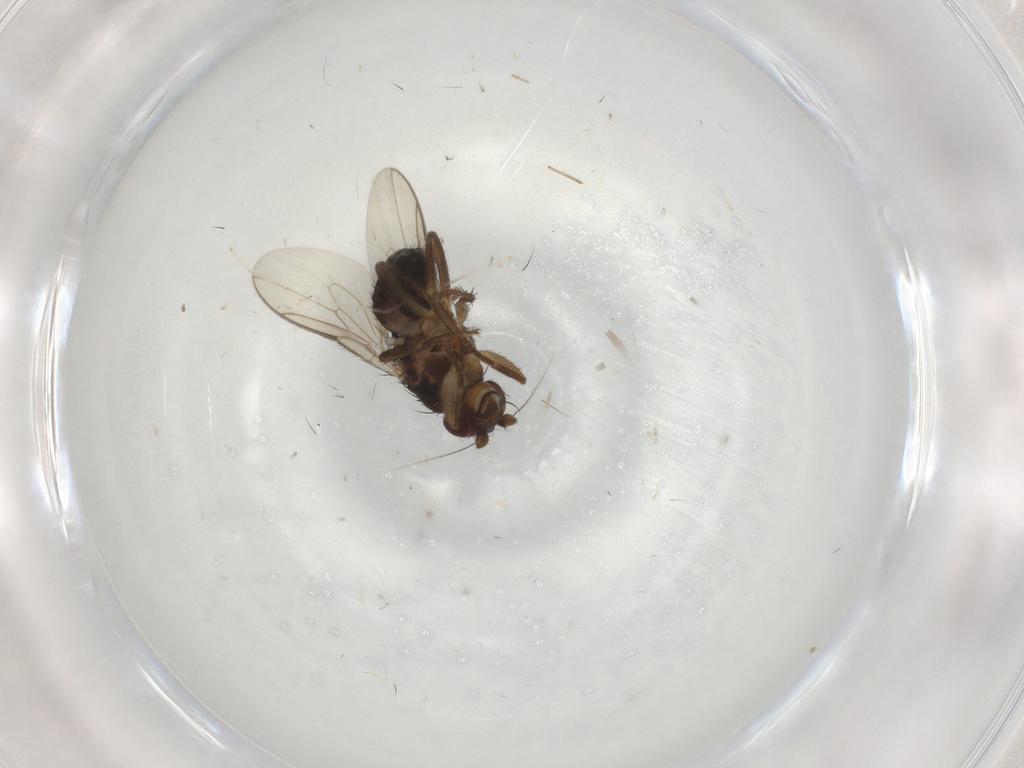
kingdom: Animalia
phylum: Arthropoda
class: Insecta
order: Diptera
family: Sphaeroceridae
